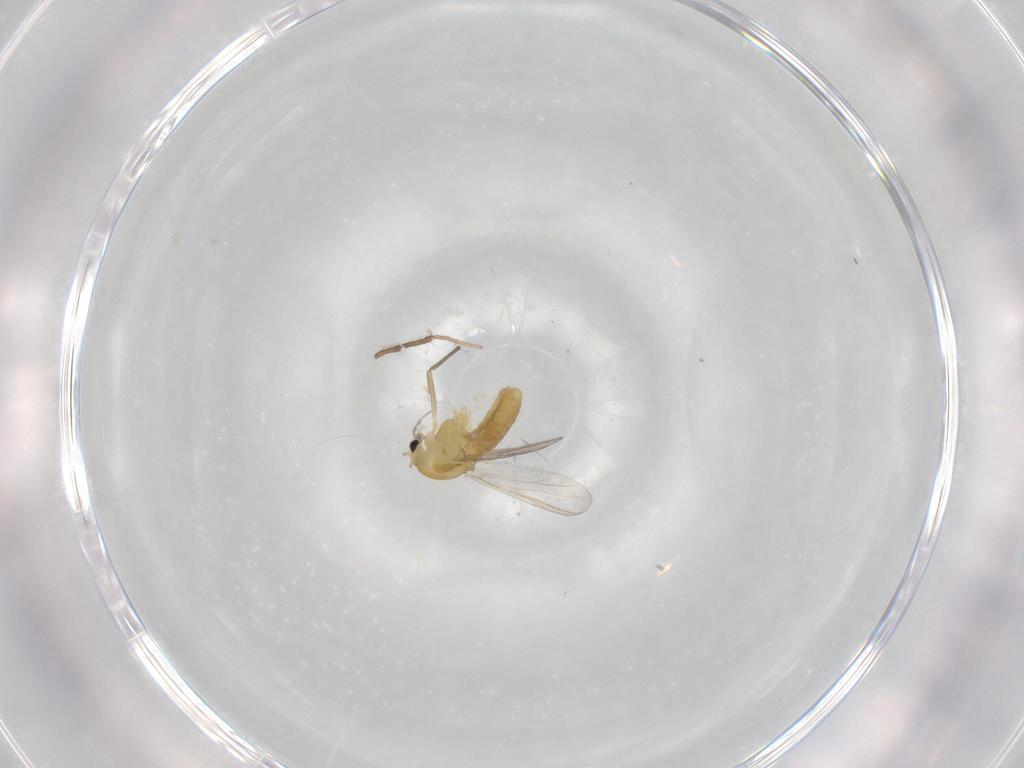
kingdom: Animalia
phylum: Arthropoda
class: Insecta
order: Diptera
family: Chironomidae
